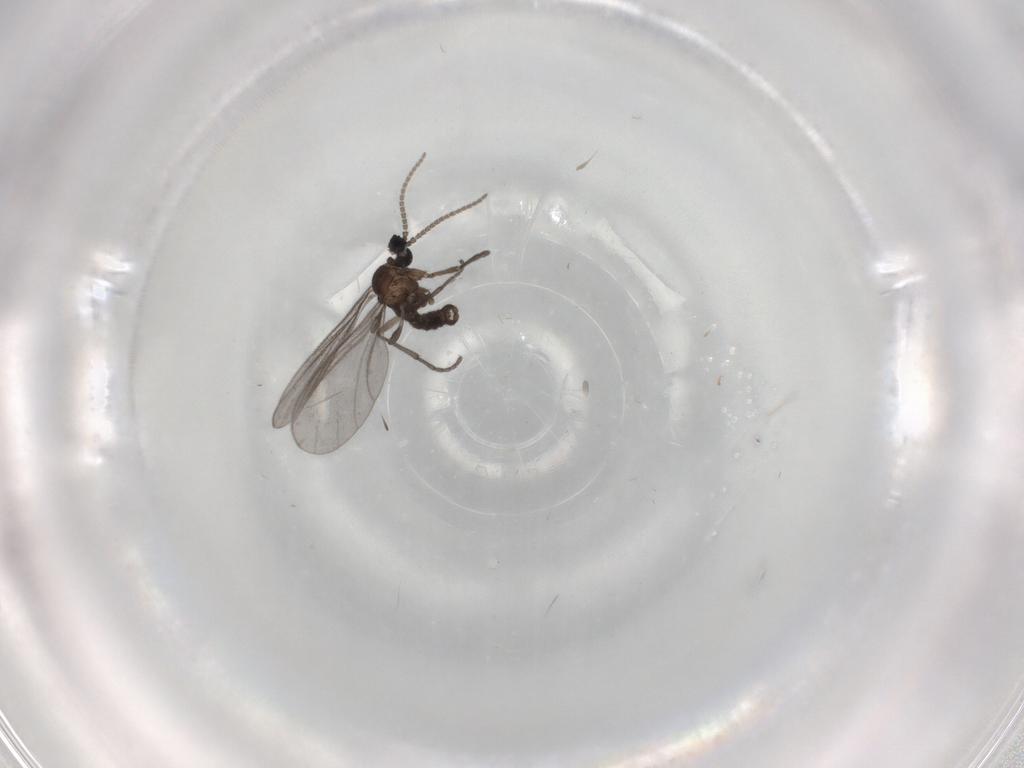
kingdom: Animalia
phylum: Arthropoda
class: Insecta
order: Diptera
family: Sciaridae
